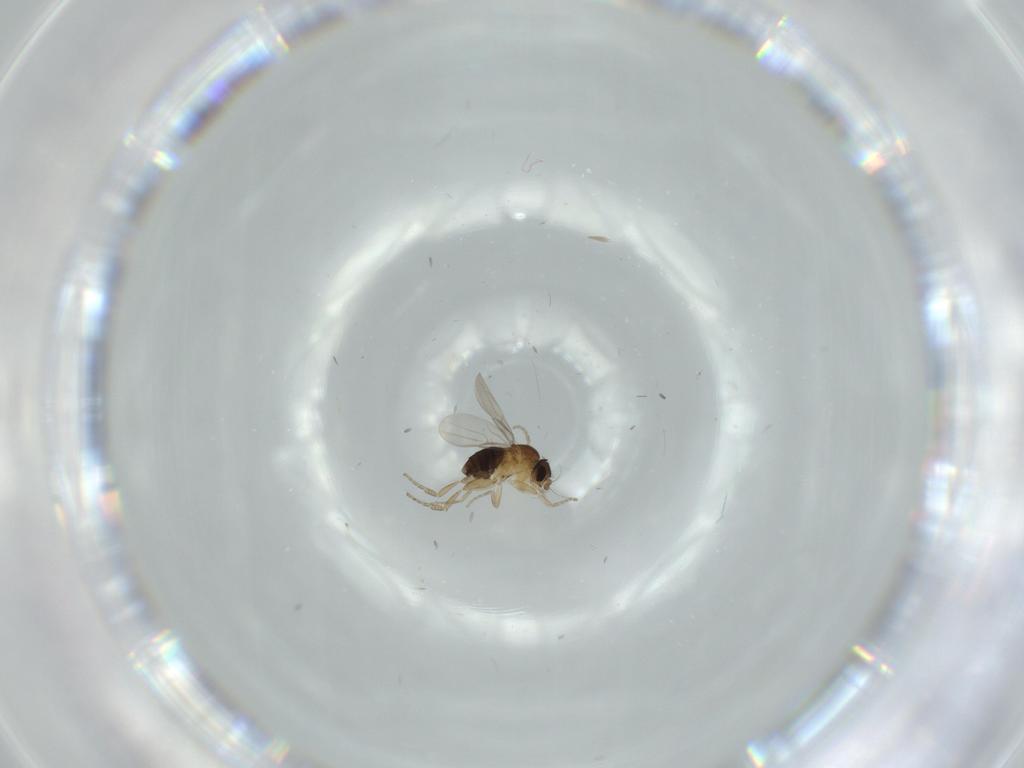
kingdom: Animalia
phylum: Arthropoda
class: Insecta
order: Diptera
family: Phoridae
